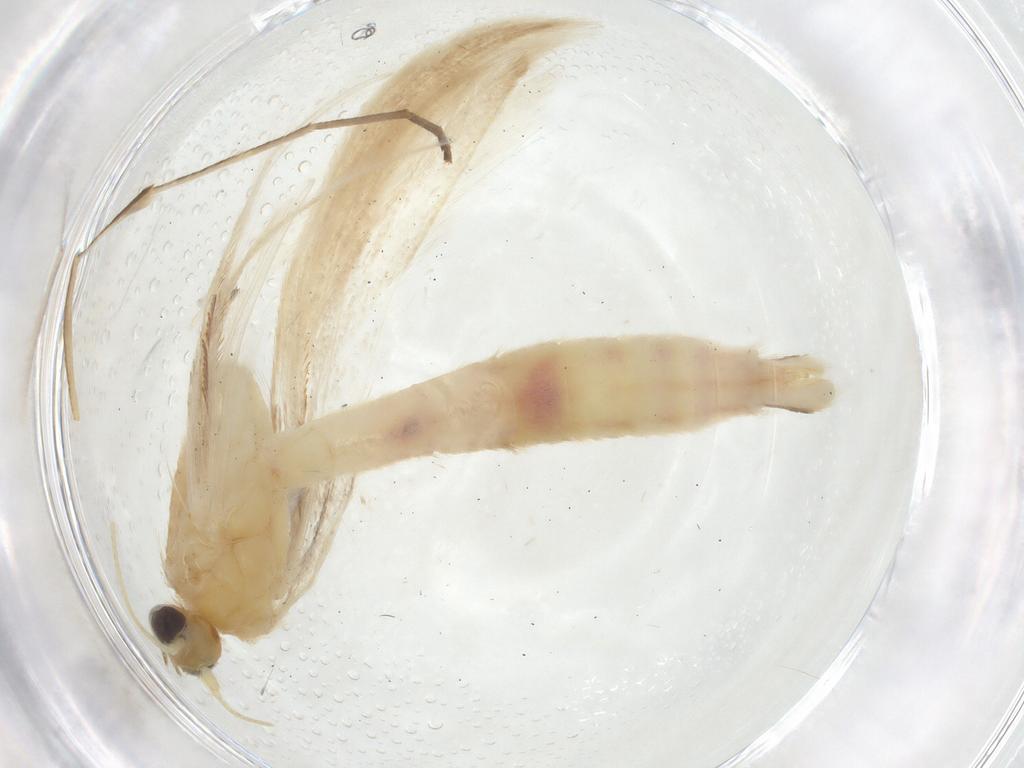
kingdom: Animalia
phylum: Arthropoda
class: Insecta
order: Lepidoptera
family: Pterophoridae
